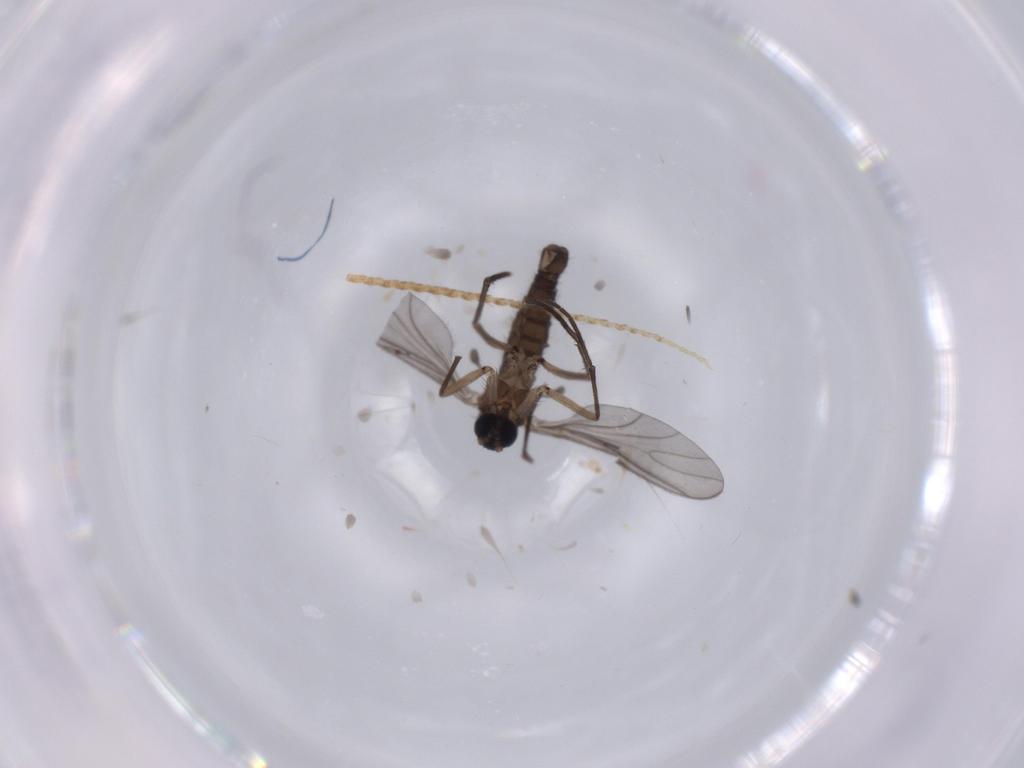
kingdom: Animalia
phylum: Arthropoda
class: Insecta
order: Diptera
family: Sciaridae
